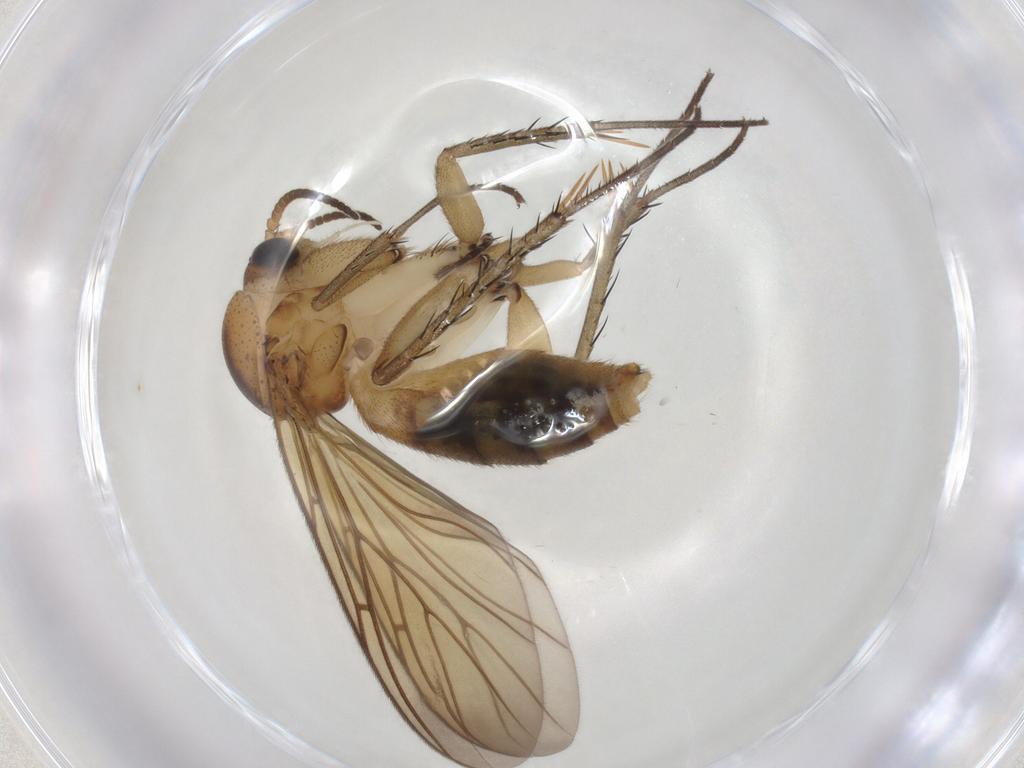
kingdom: Animalia
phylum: Arthropoda
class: Insecta
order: Diptera
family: Mycetophilidae
